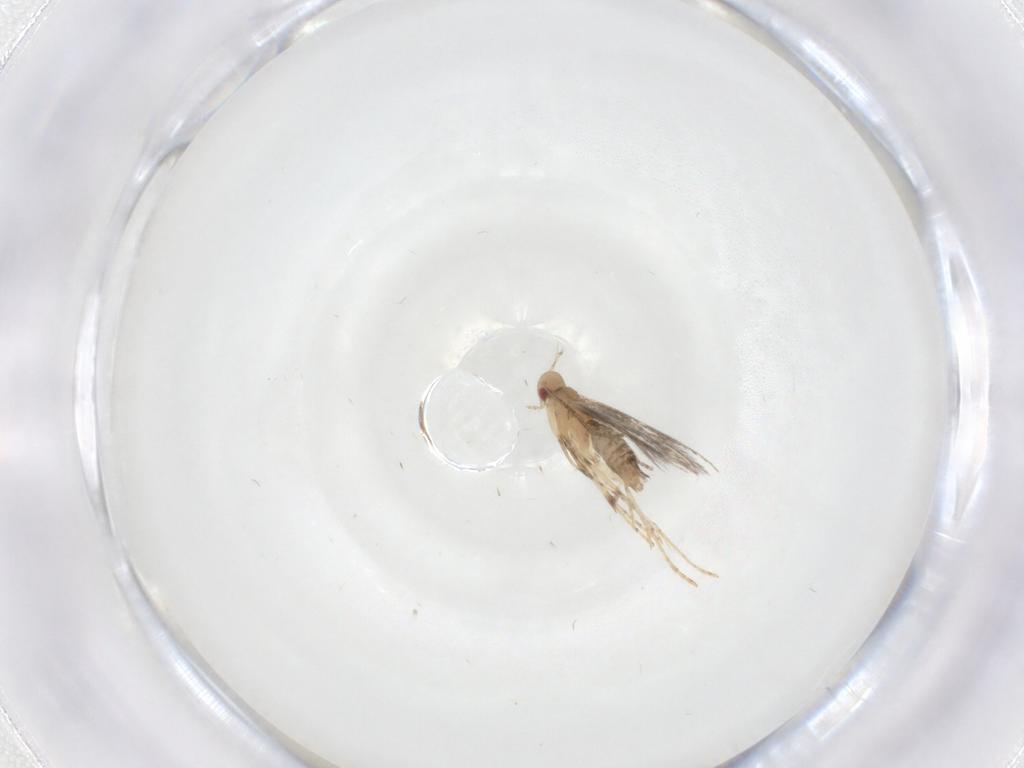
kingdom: Animalia
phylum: Arthropoda
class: Insecta
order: Lepidoptera
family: Gracillariidae
